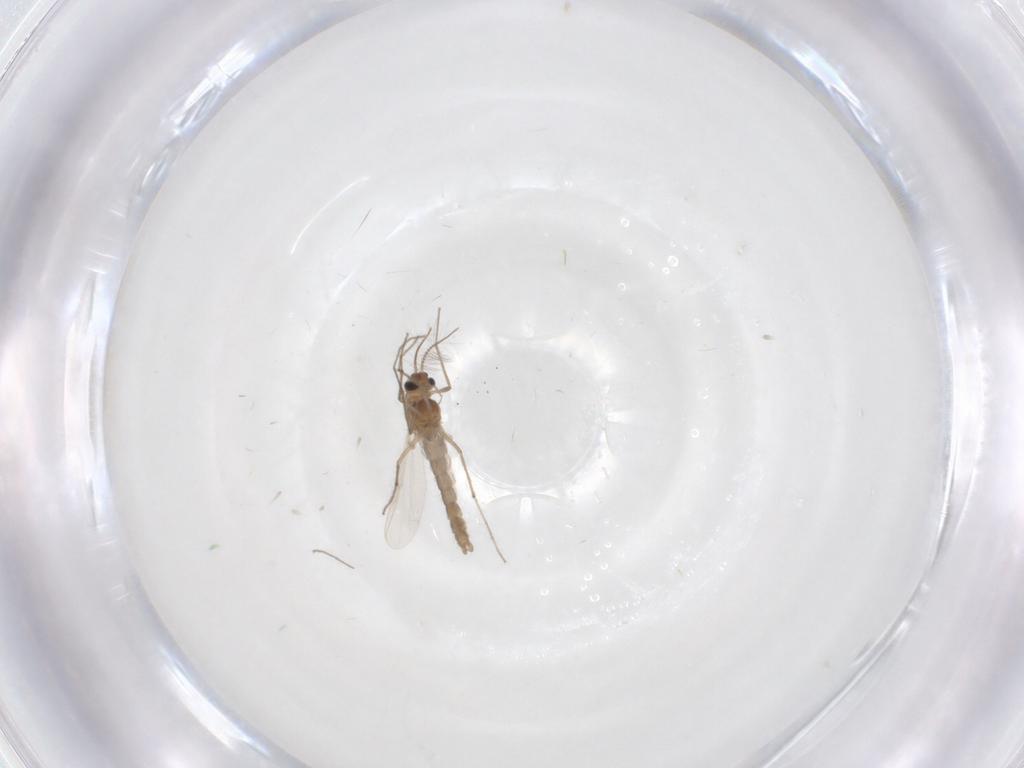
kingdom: Animalia
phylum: Arthropoda
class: Insecta
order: Diptera
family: Chironomidae
